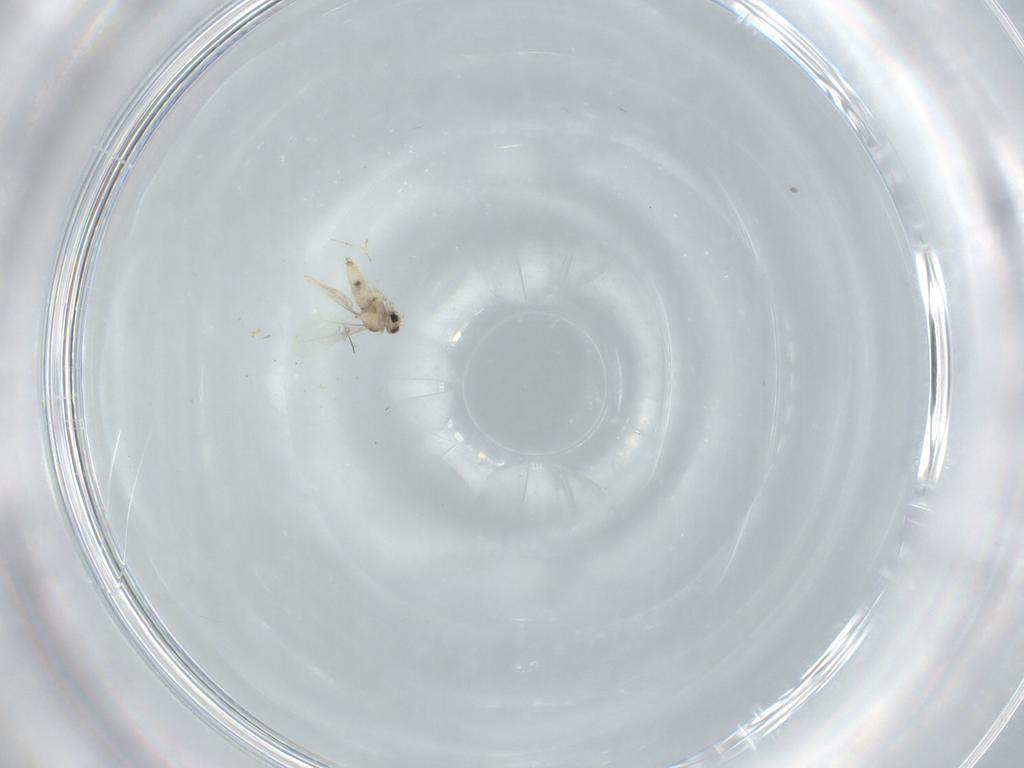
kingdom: Animalia
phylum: Arthropoda
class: Insecta
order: Diptera
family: Cecidomyiidae
